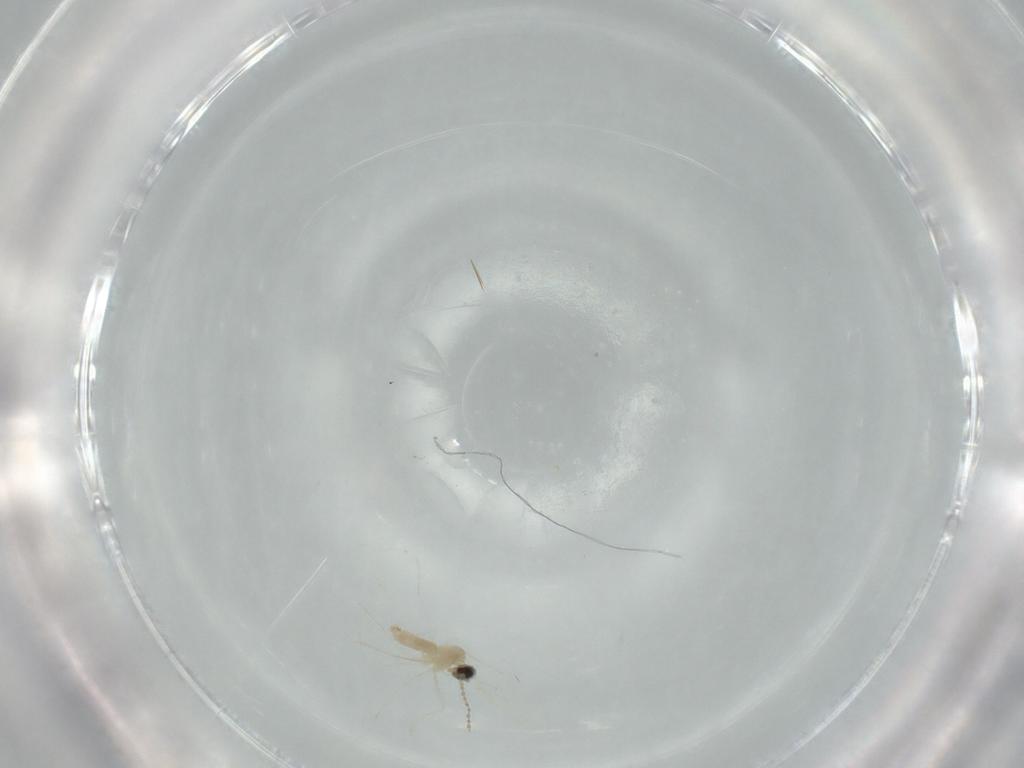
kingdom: Animalia
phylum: Arthropoda
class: Insecta
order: Diptera
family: Cecidomyiidae
